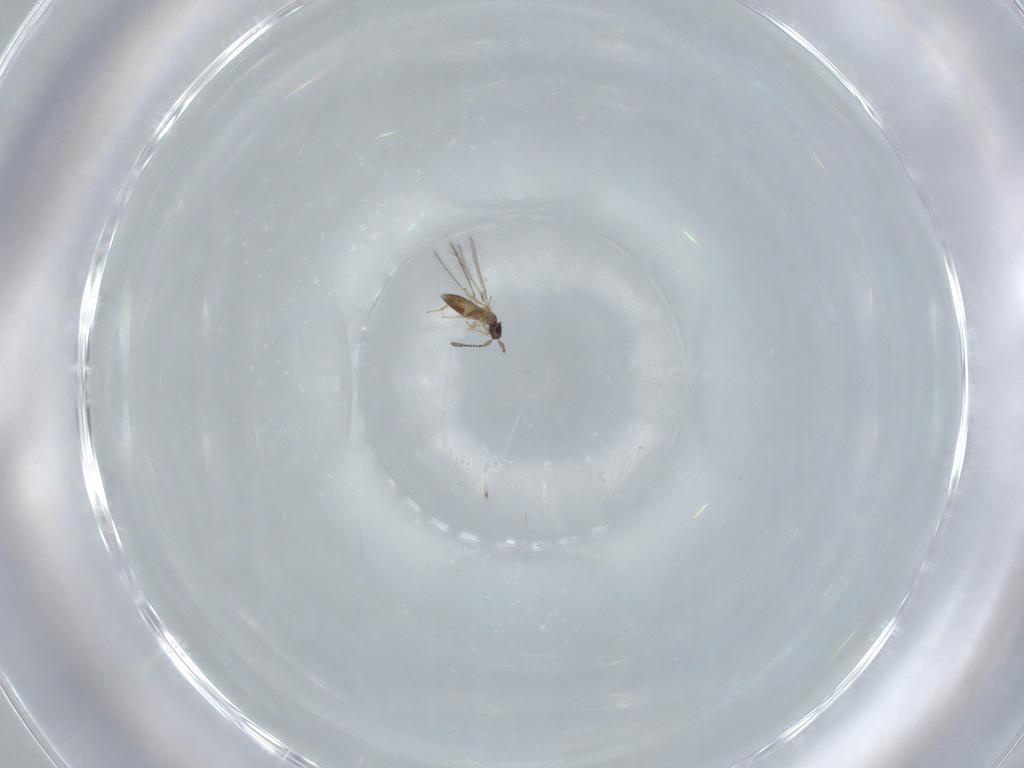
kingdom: Animalia
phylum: Arthropoda
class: Insecta
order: Hymenoptera
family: Mymaridae
